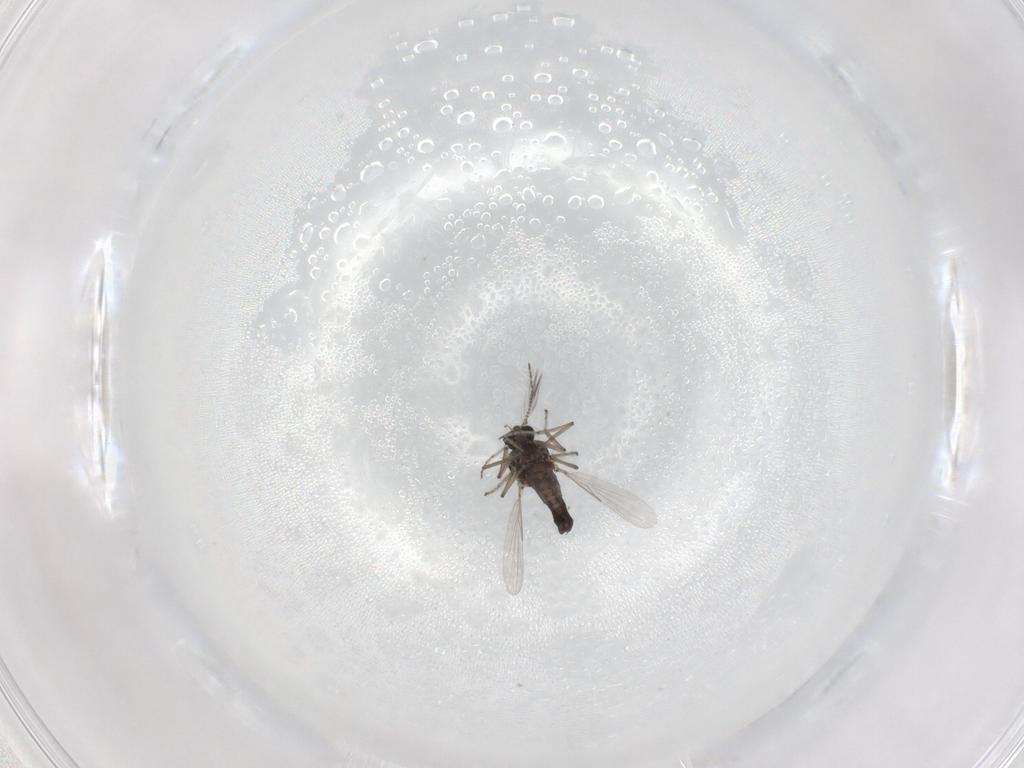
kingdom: Animalia
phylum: Arthropoda
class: Insecta
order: Diptera
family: Ceratopogonidae
